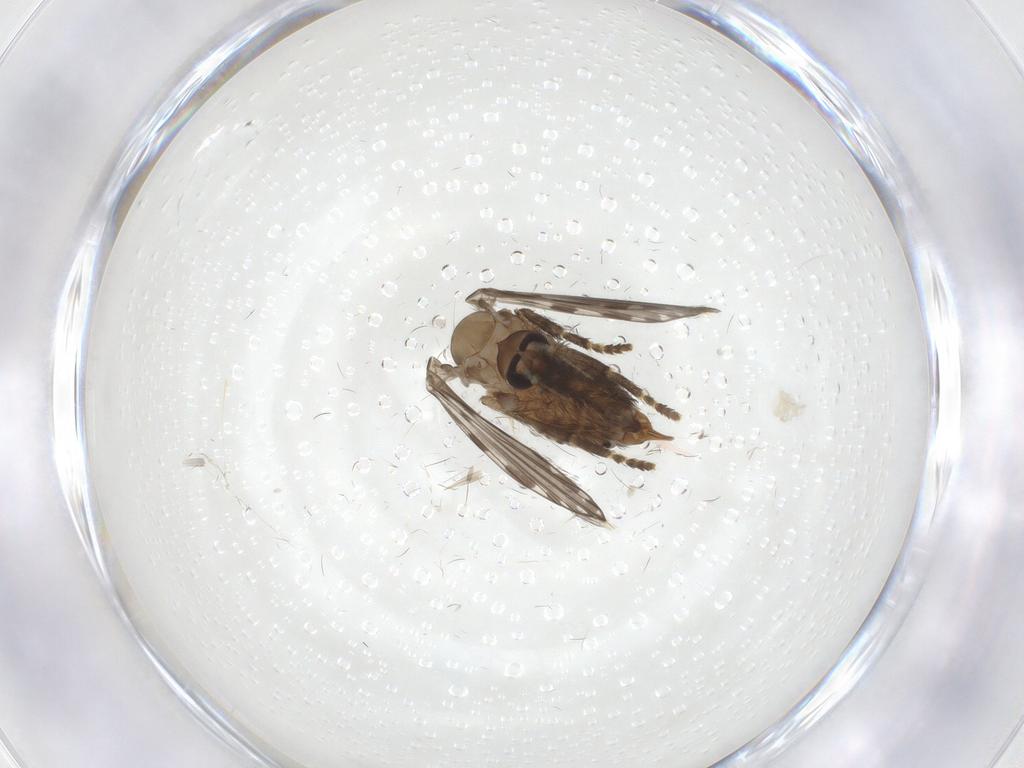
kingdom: Animalia
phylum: Arthropoda
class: Insecta
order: Diptera
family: Psychodidae
